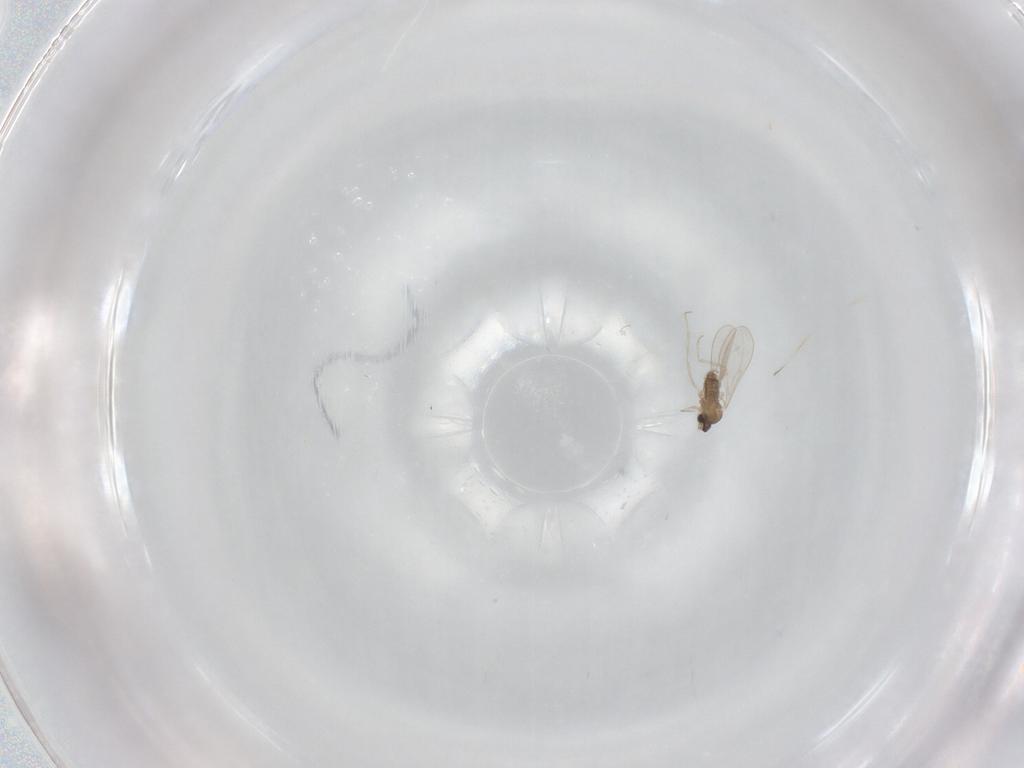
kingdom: Animalia
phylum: Arthropoda
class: Insecta
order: Diptera
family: Cecidomyiidae
